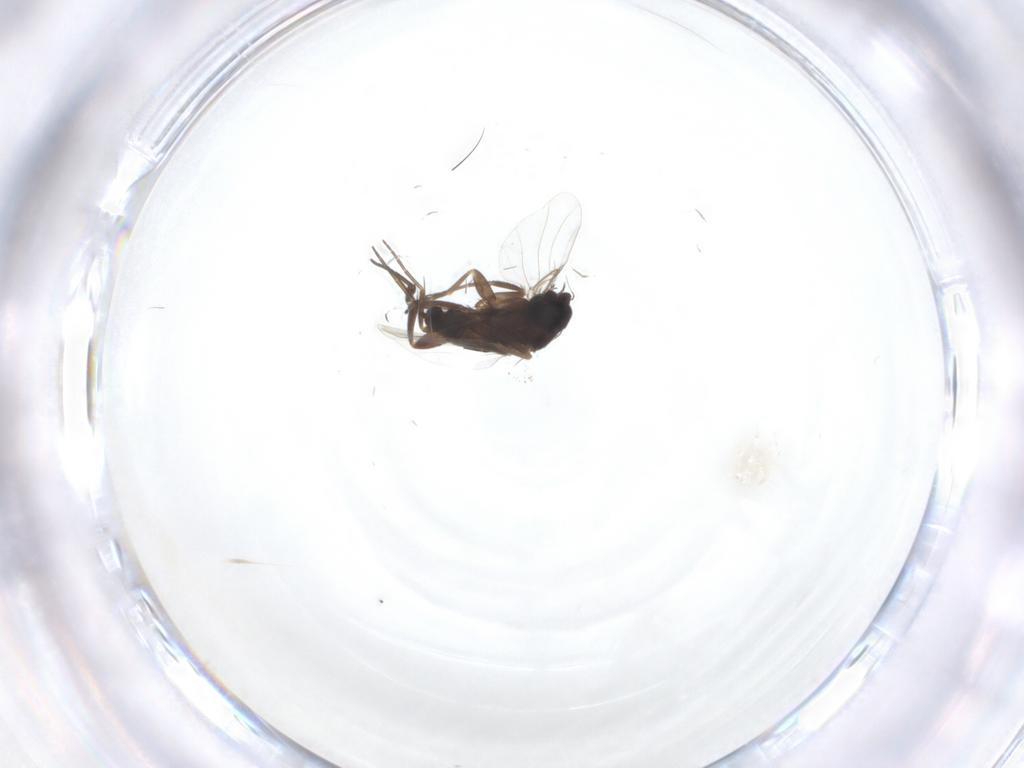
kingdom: Animalia
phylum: Arthropoda
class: Insecta
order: Diptera
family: Phoridae
